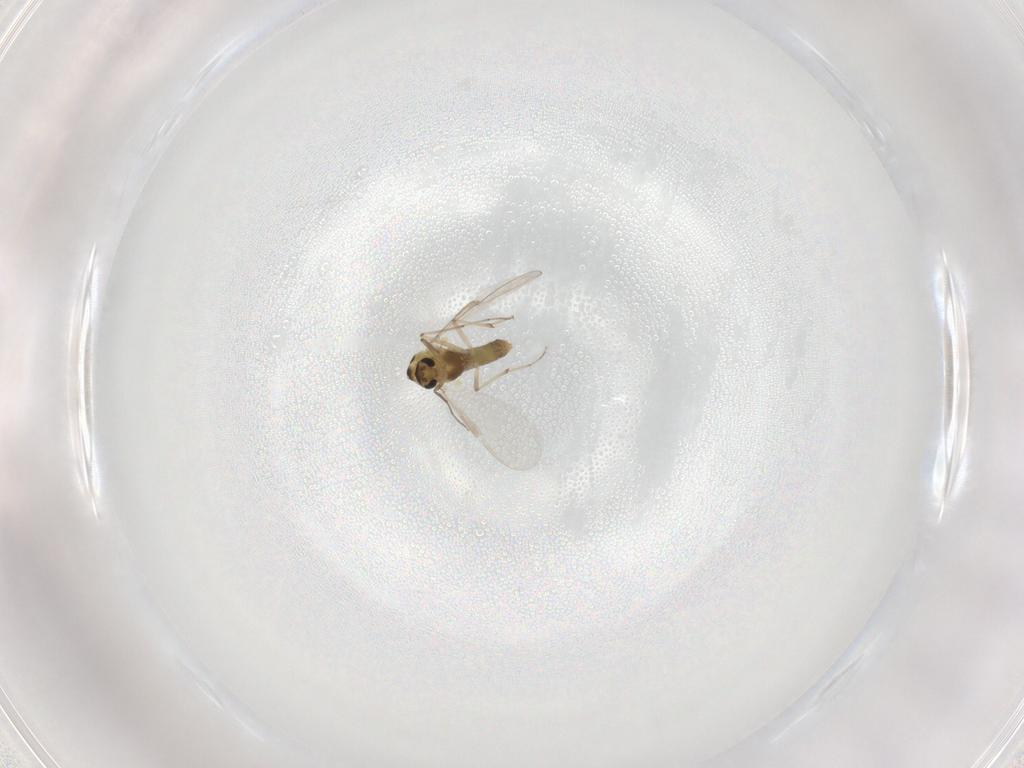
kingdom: Animalia
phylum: Arthropoda
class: Insecta
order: Diptera
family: Chironomidae
